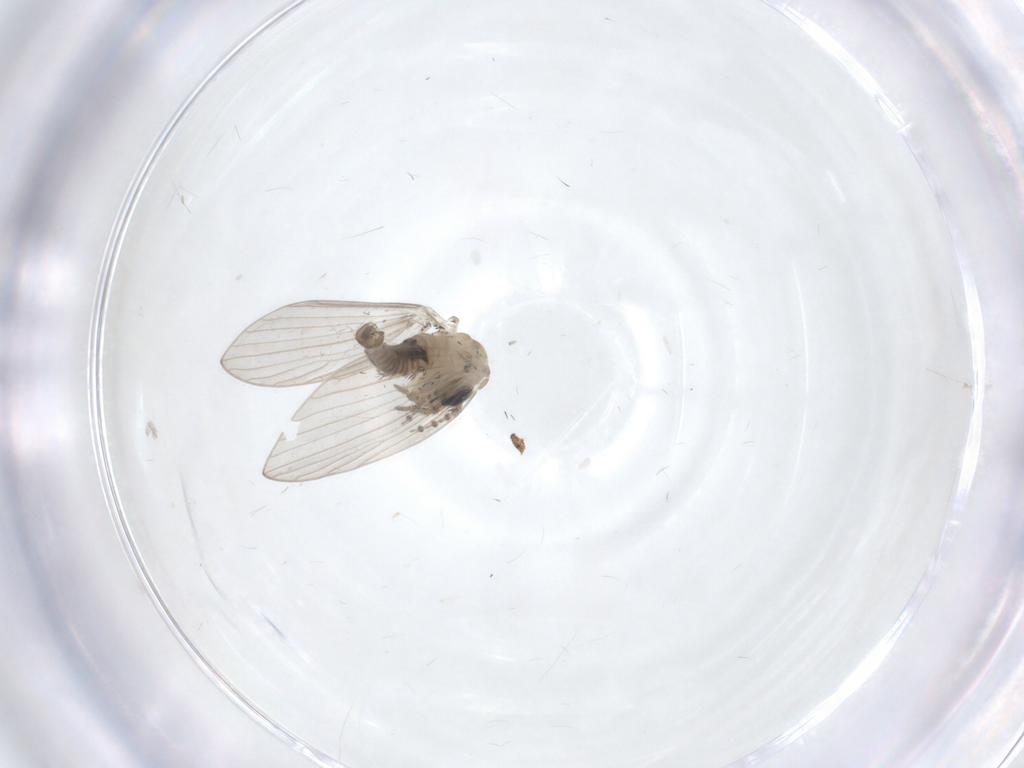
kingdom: Animalia
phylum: Arthropoda
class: Insecta
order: Diptera
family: Psychodidae
